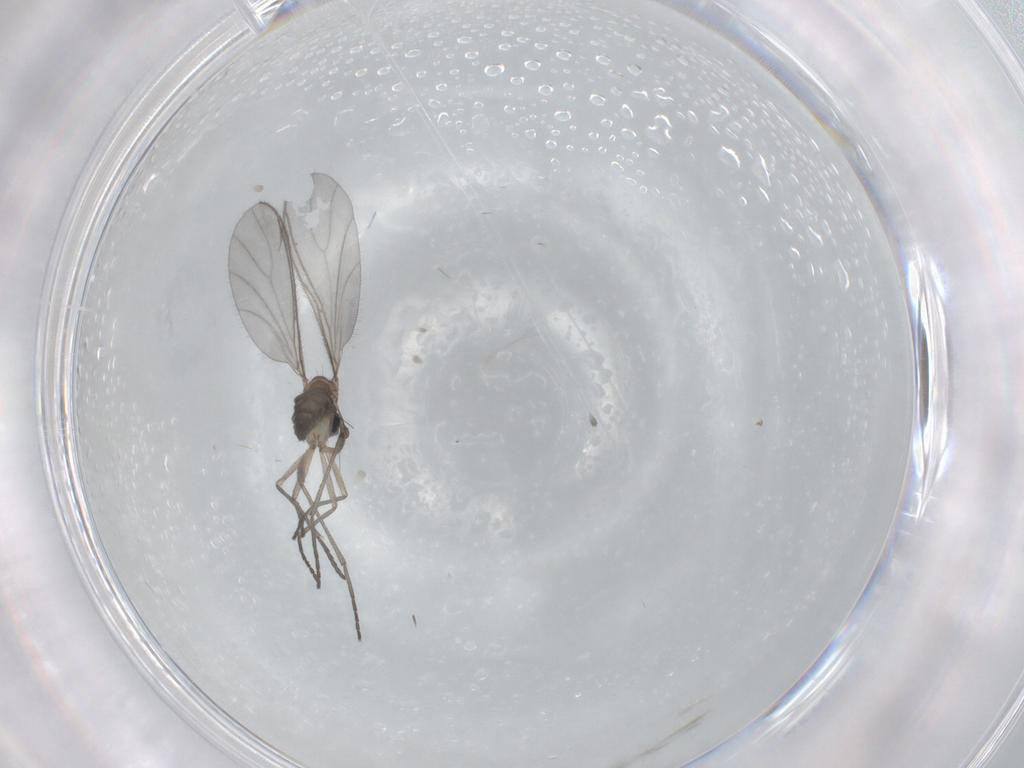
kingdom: Animalia
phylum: Arthropoda
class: Insecta
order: Diptera
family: Sciaridae
